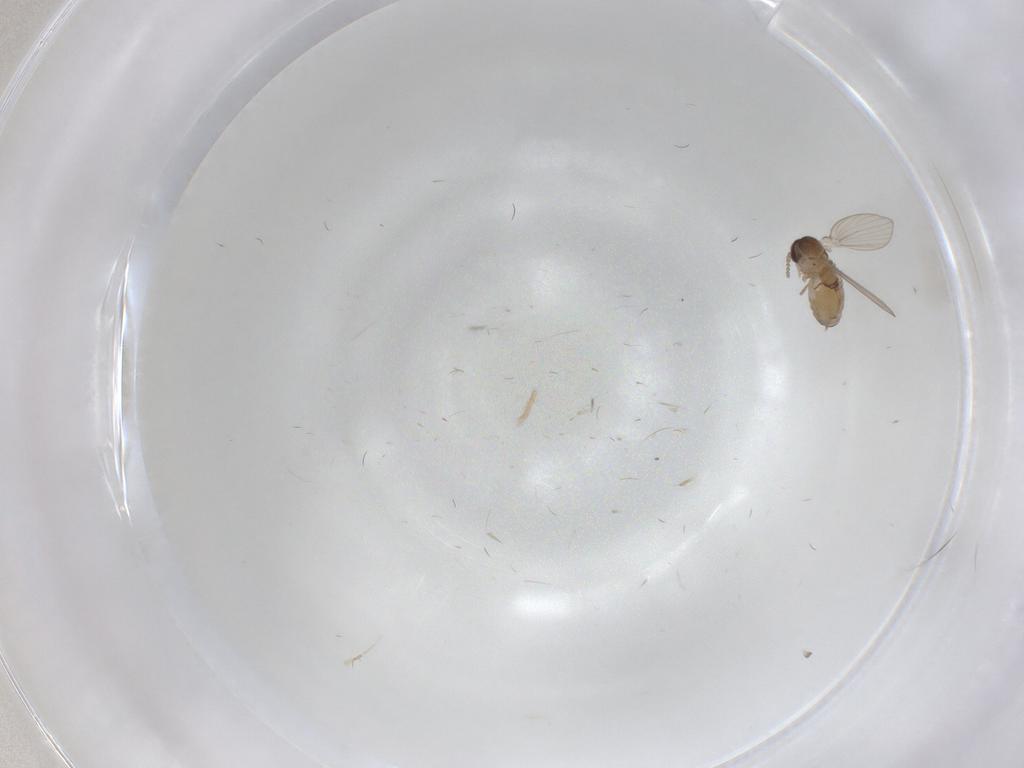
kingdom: Animalia
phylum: Arthropoda
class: Insecta
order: Diptera
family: Psychodidae
